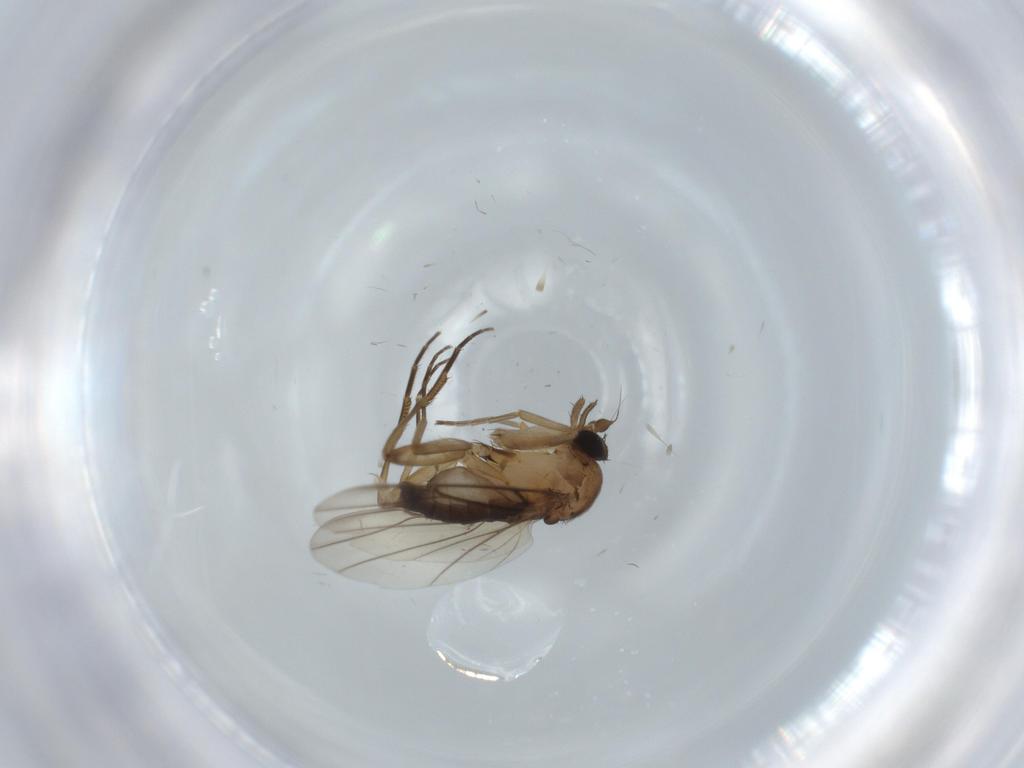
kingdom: Animalia
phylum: Arthropoda
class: Insecta
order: Diptera
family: Phoridae
